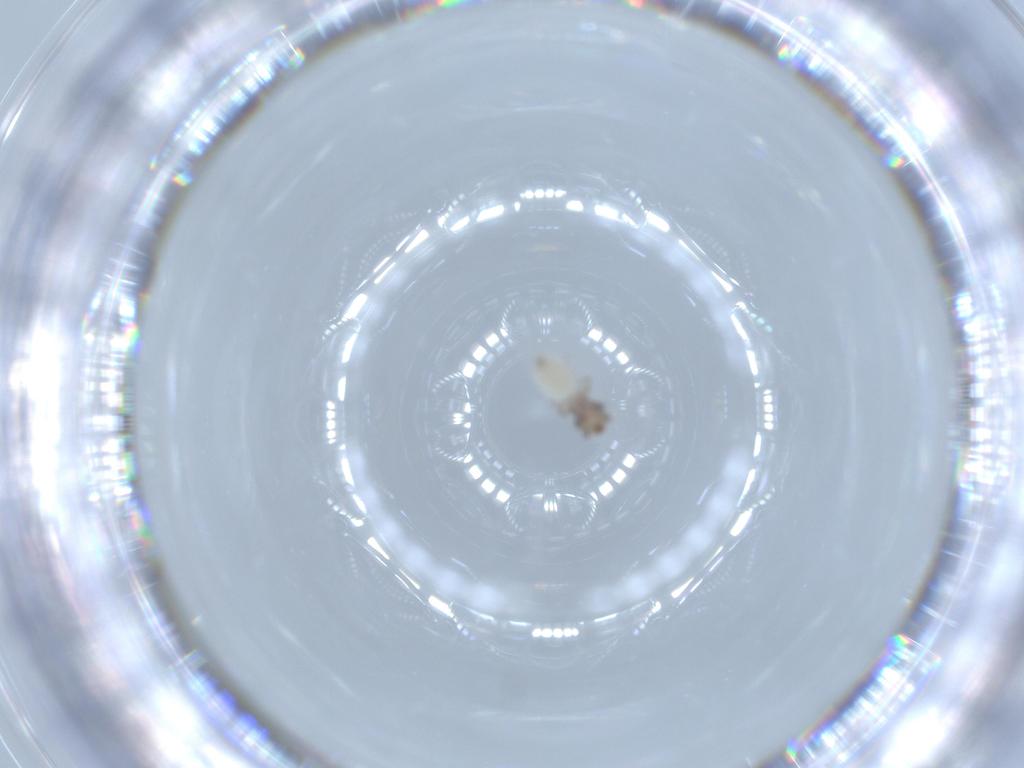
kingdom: Animalia
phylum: Arthropoda
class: Insecta
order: Psocodea
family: Lepidopsocidae
